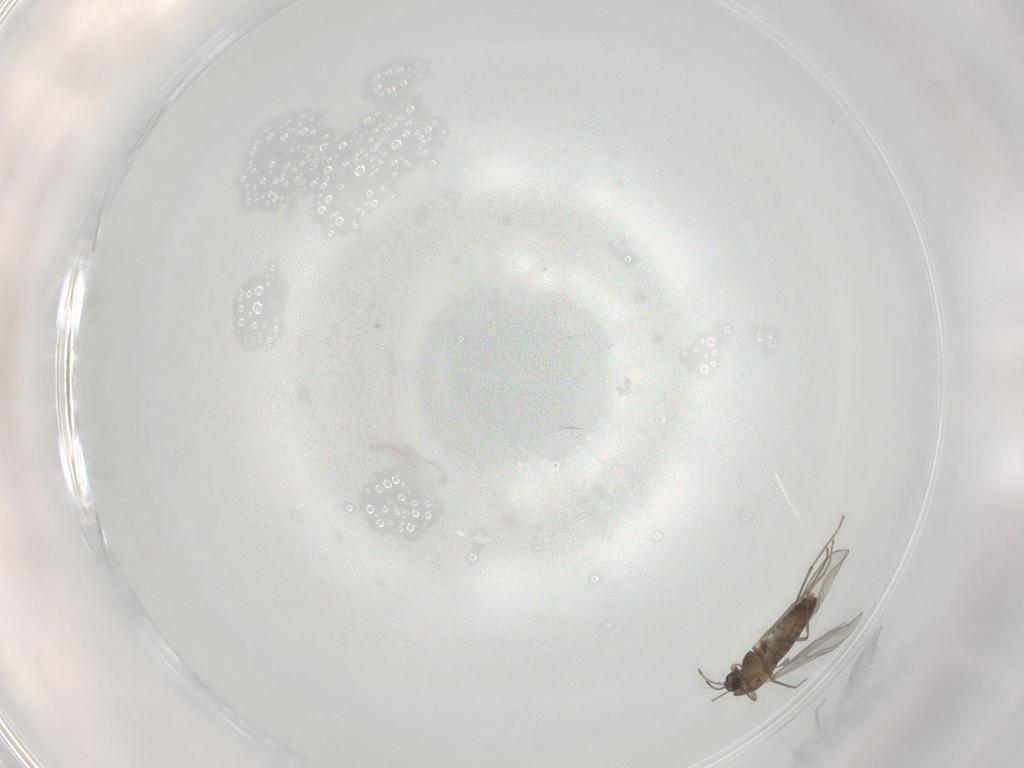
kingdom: Animalia
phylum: Arthropoda
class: Insecta
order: Diptera
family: Chironomidae
